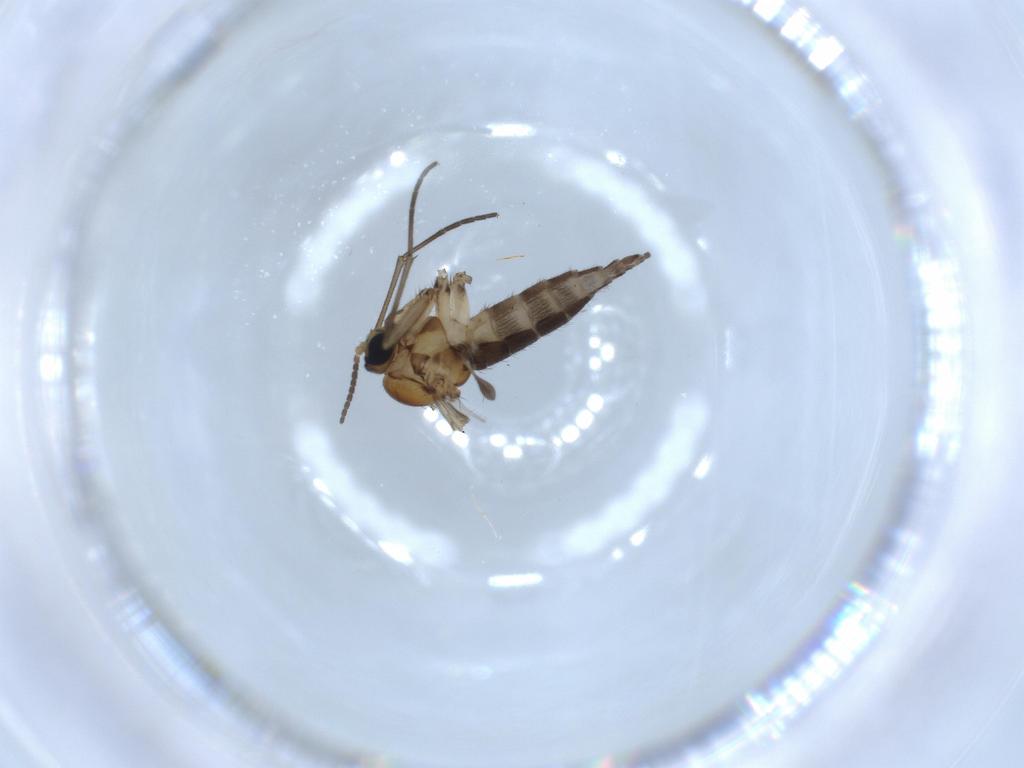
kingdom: Animalia
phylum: Arthropoda
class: Insecta
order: Diptera
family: Sciaridae
